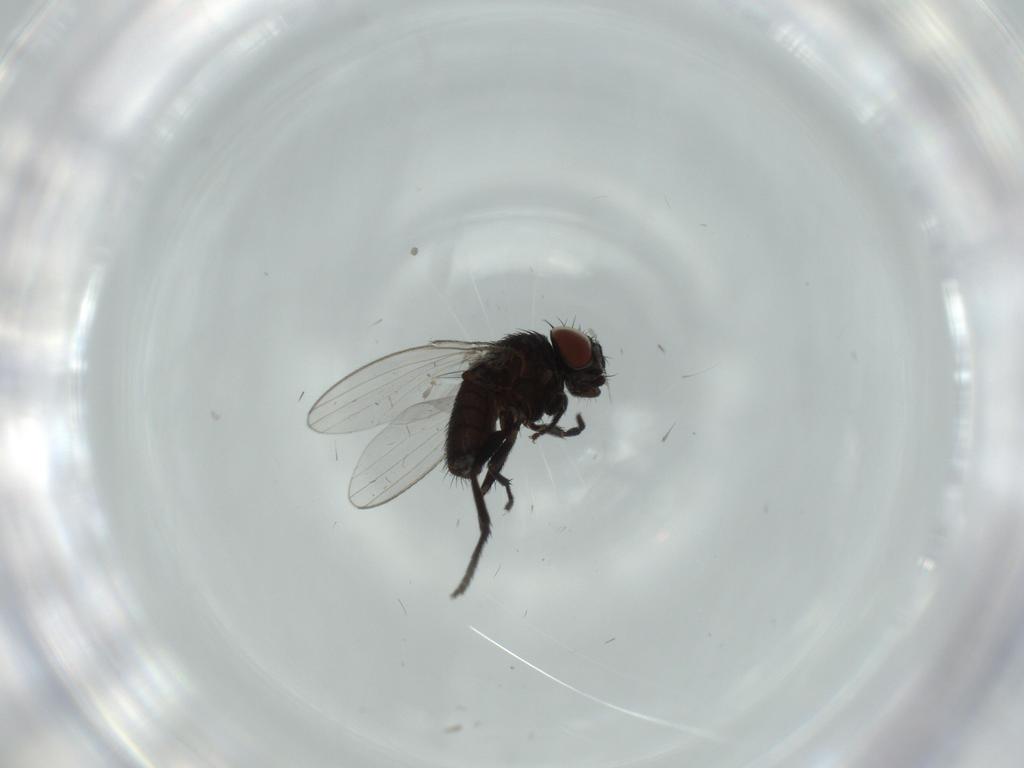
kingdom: Animalia
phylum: Arthropoda
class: Insecta
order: Diptera
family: Milichiidae
